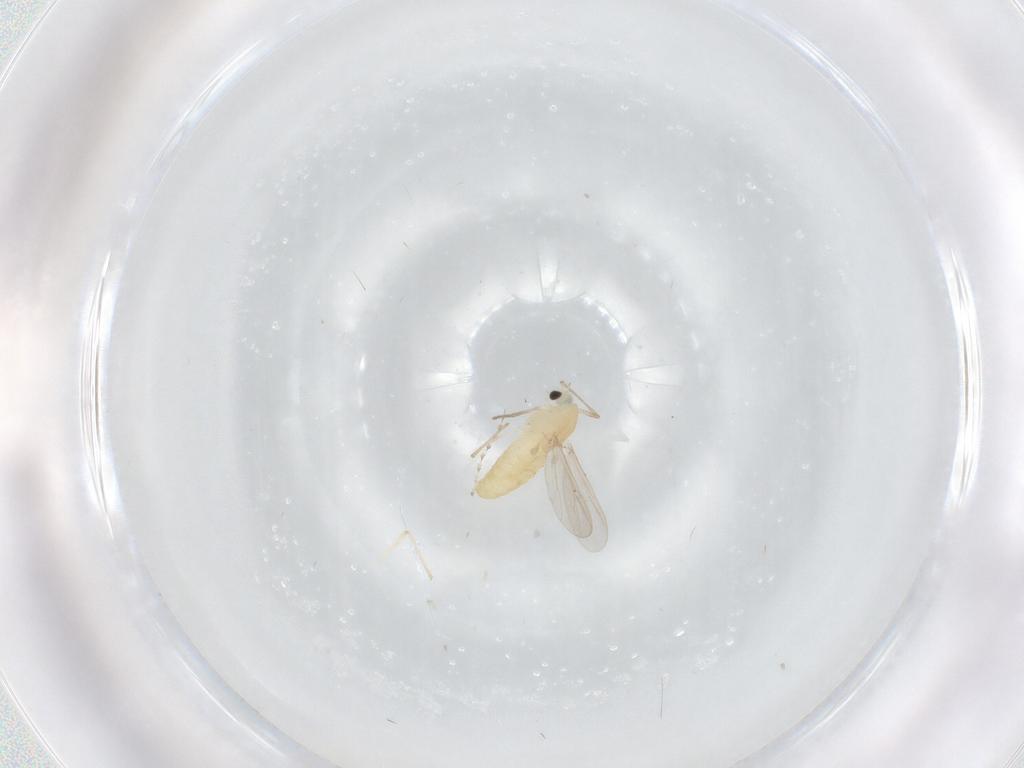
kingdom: Animalia
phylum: Arthropoda
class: Insecta
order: Diptera
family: Chironomidae
